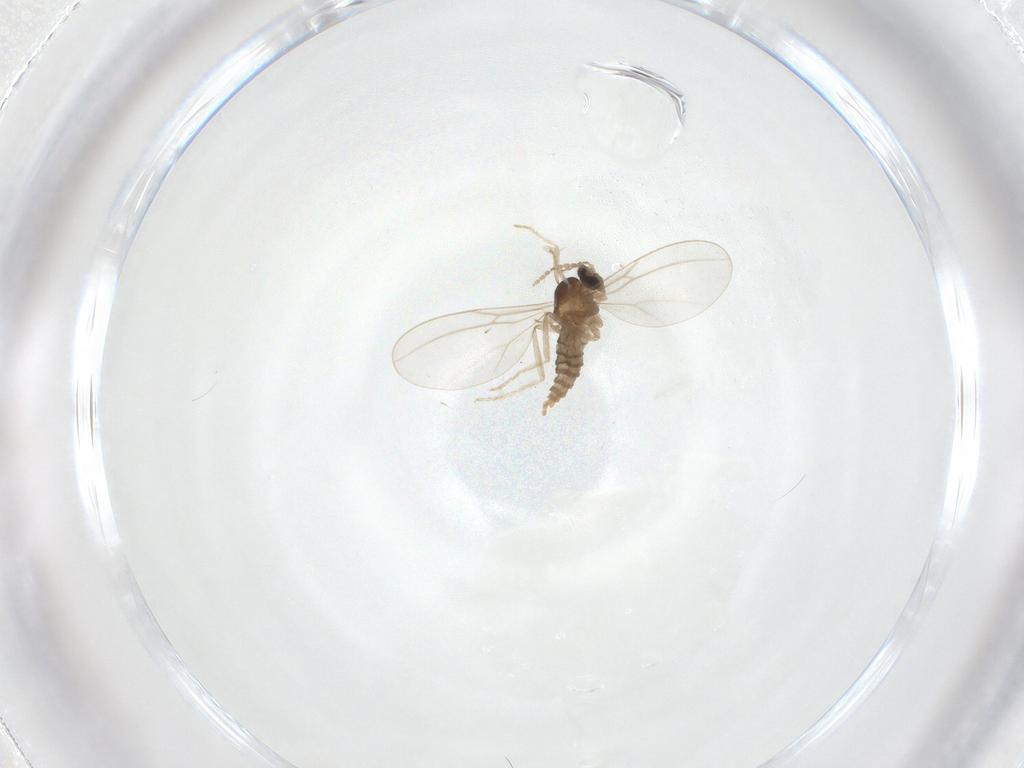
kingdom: Animalia
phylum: Arthropoda
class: Insecta
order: Diptera
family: Cecidomyiidae
